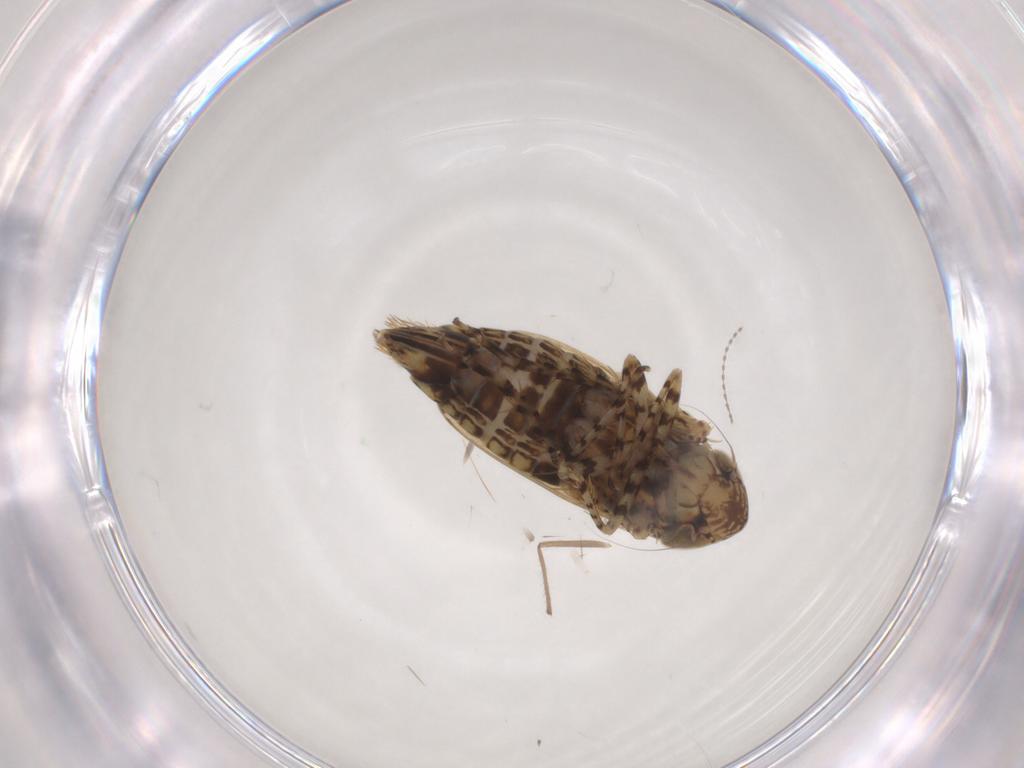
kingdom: Animalia
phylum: Arthropoda
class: Insecta
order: Hemiptera
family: Cicadellidae
